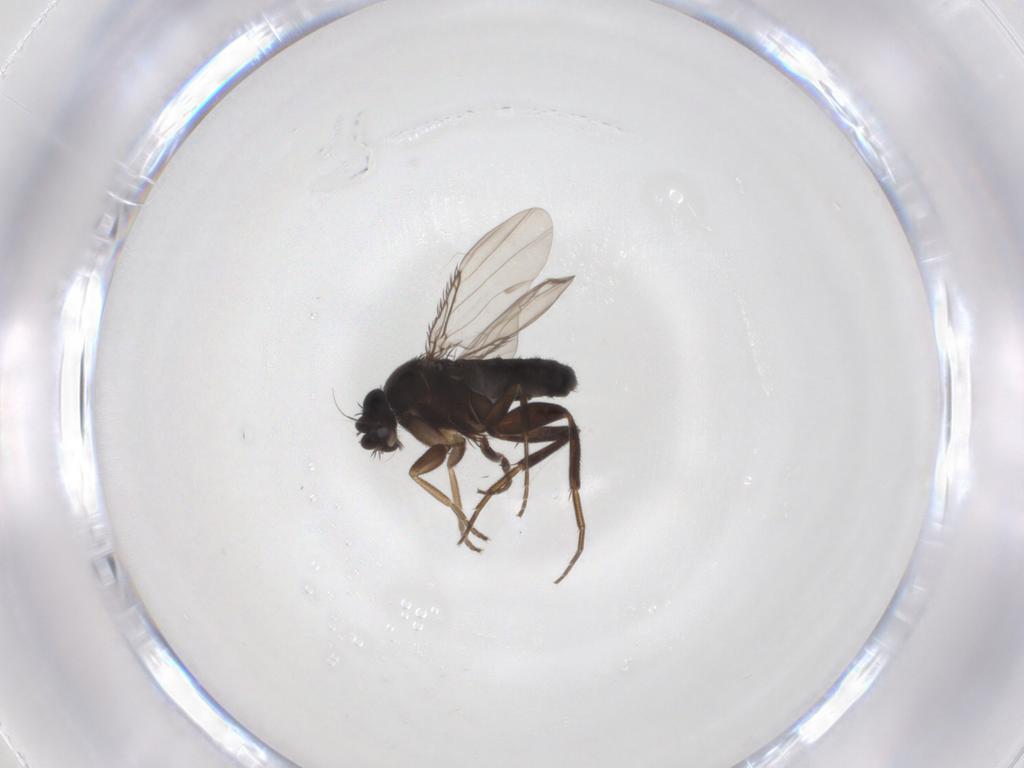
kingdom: Animalia
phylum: Arthropoda
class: Insecta
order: Diptera
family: Phoridae
